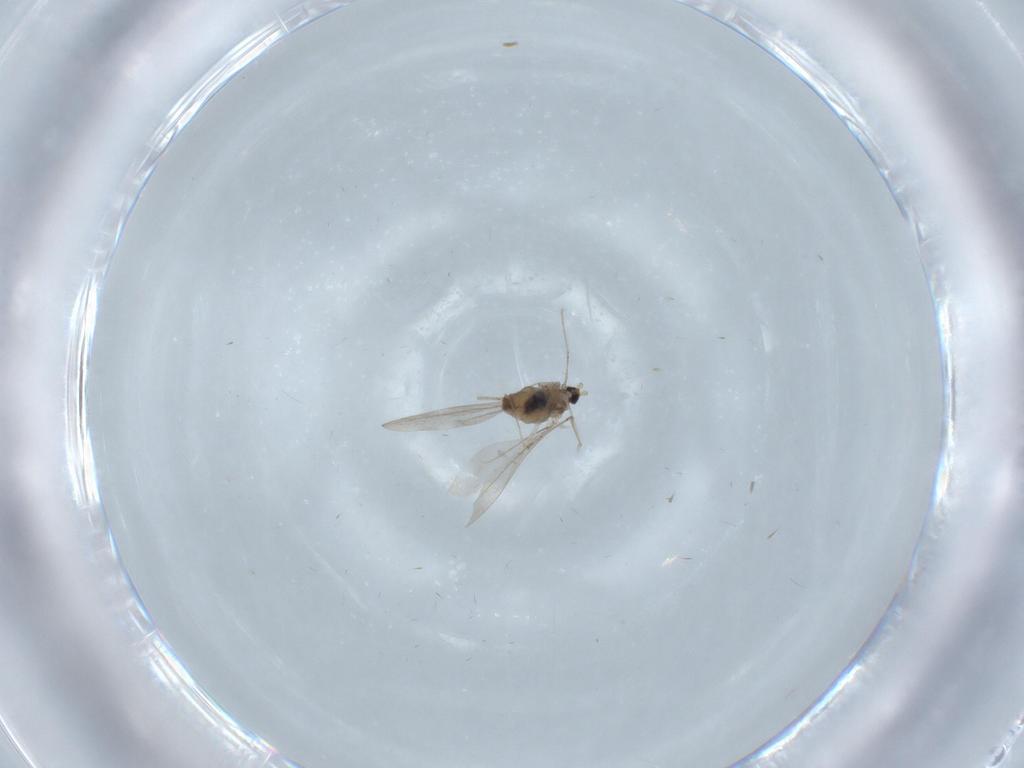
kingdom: Animalia
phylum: Arthropoda
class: Insecta
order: Diptera
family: Cecidomyiidae
